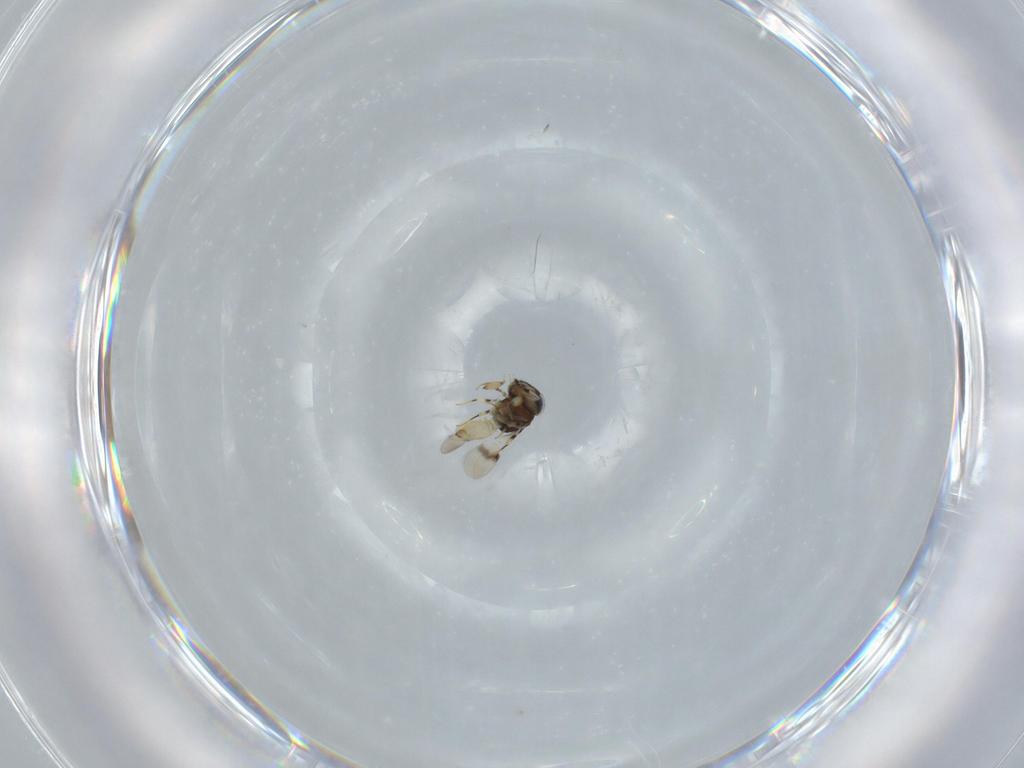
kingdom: Animalia
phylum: Arthropoda
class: Insecta
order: Hymenoptera
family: Scelionidae
